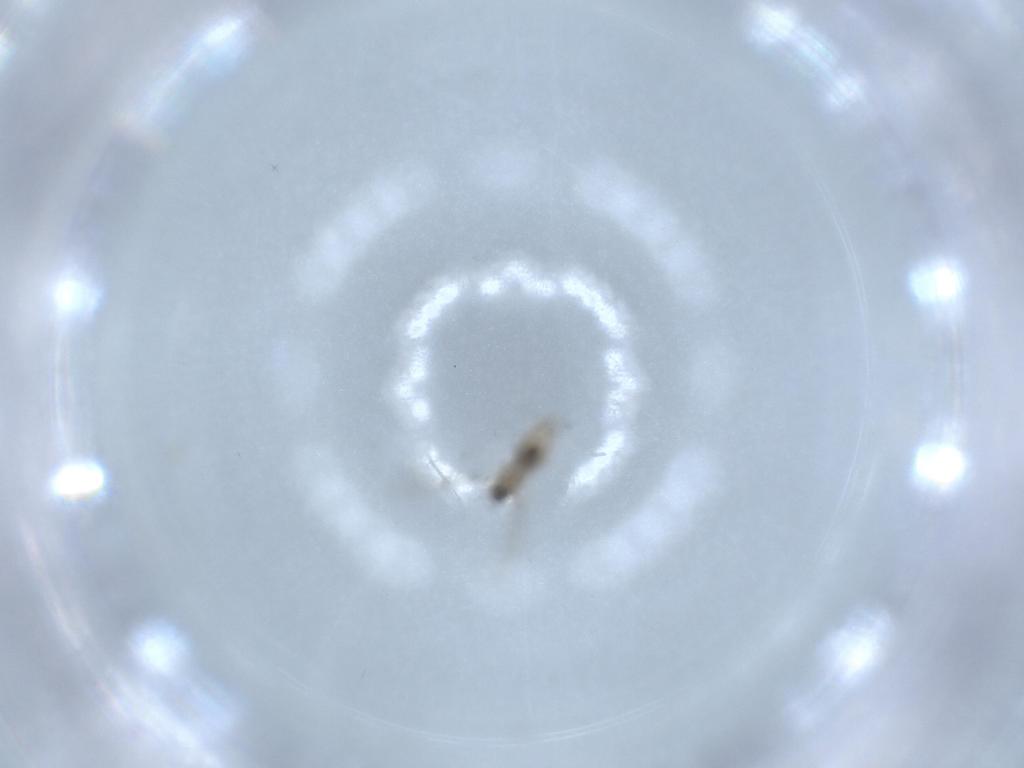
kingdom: Animalia
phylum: Arthropoda
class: Insecta
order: Diptera
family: Cecidomyiidae
